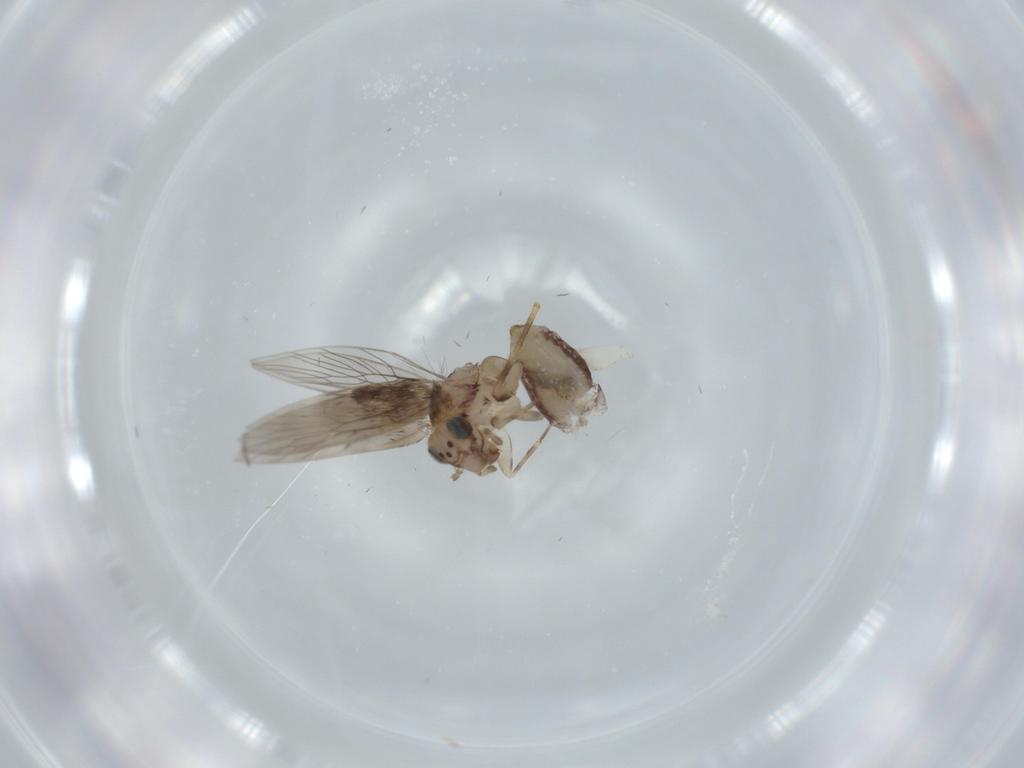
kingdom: Animalia
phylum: Arthropoda
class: Insecta
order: Psocodea
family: Lepidopsocidae
